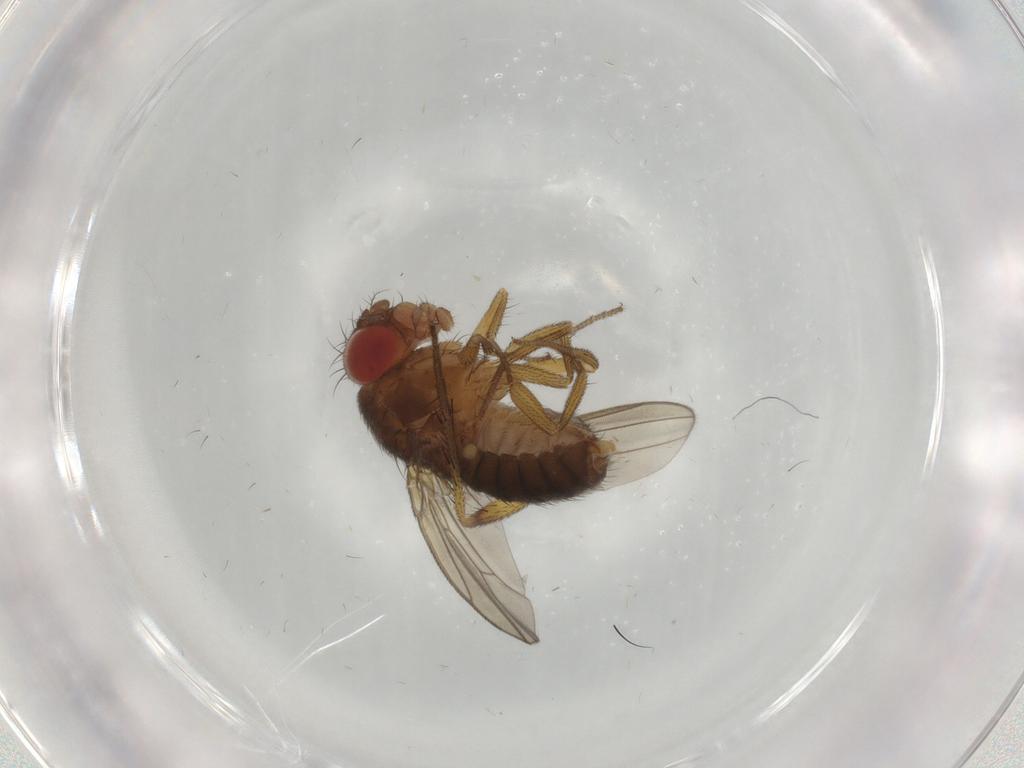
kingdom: Animalia
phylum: Arthropoda
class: Insecta
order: Diptera
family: Drosophilidae
